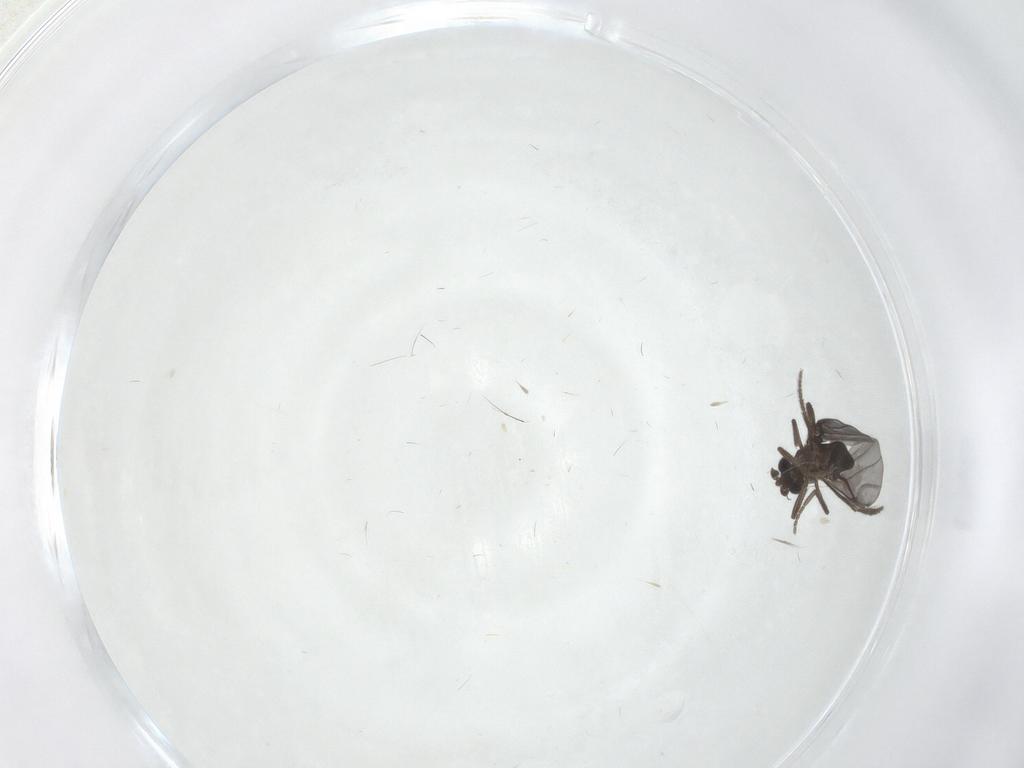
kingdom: Animalia
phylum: Arthropoda
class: Insecta
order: Diptera
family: Phoridae
